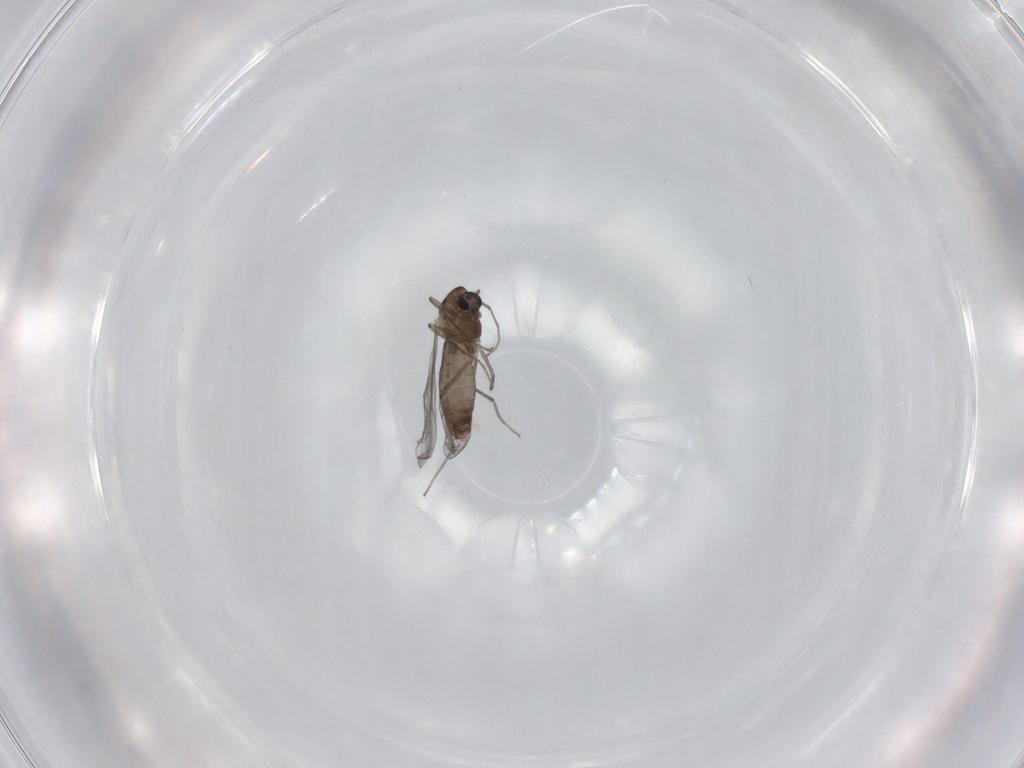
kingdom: Animalia
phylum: Arthropoda
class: Insecta
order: Diptera
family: Chironomidae
